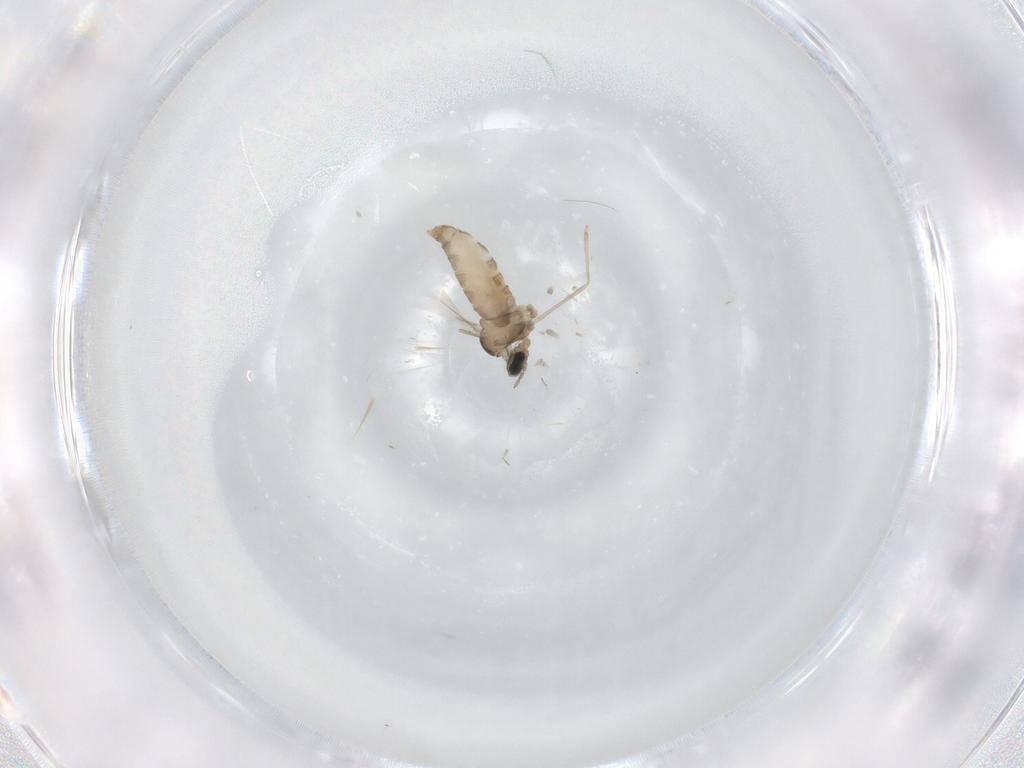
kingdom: Animalia
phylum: Arthropoda
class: Insecta
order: Diptera
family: Cecidomyiidae
